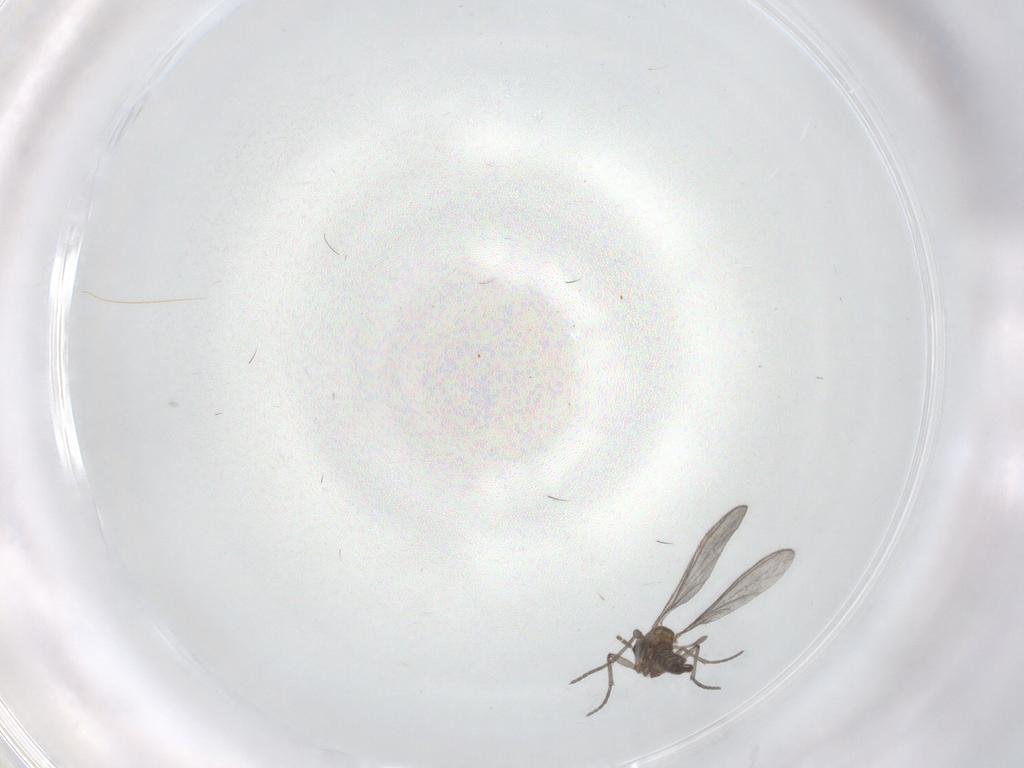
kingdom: Animalia
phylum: Arthropoda
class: Insecta
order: Diptera
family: Sciaridae
